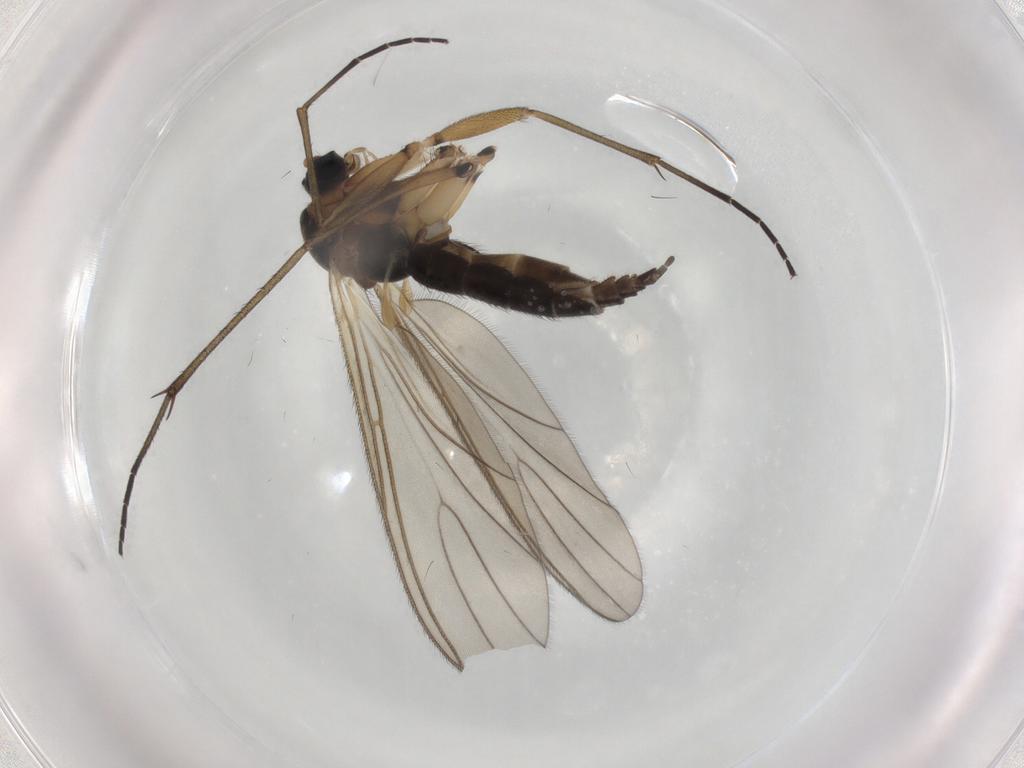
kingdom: Animalia
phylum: Arthropoda
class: Insecta
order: Diptera
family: Sciaridae
